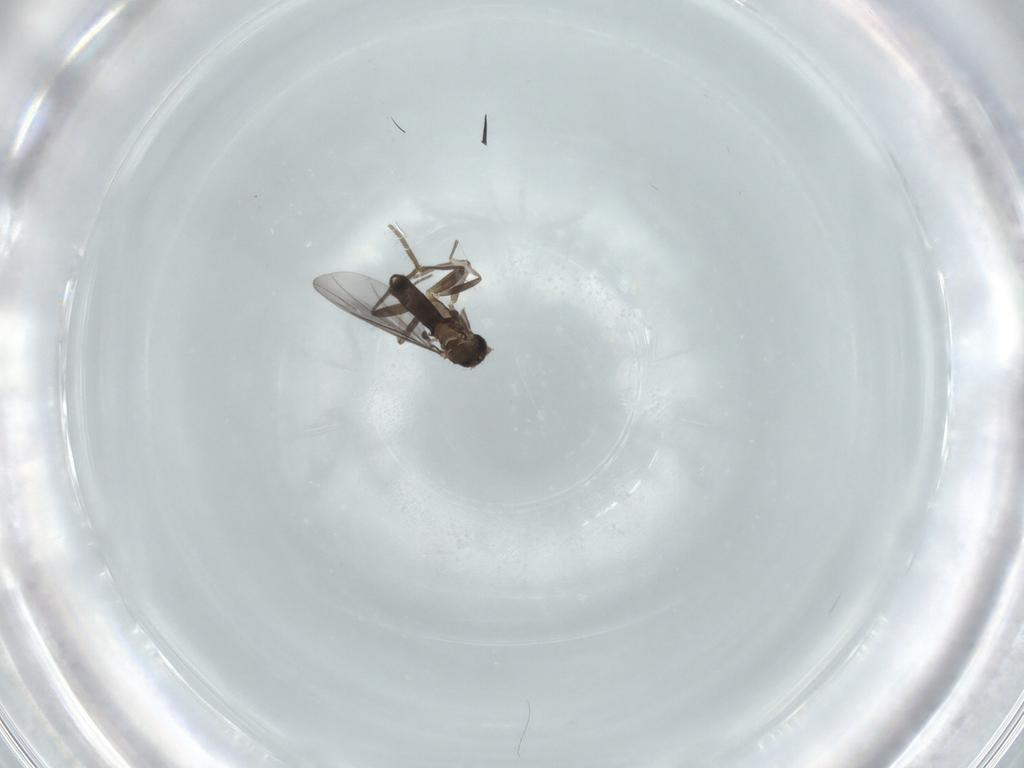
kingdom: Animalia
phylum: Arthropoda
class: Insecta
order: Diptera
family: Phoridae
